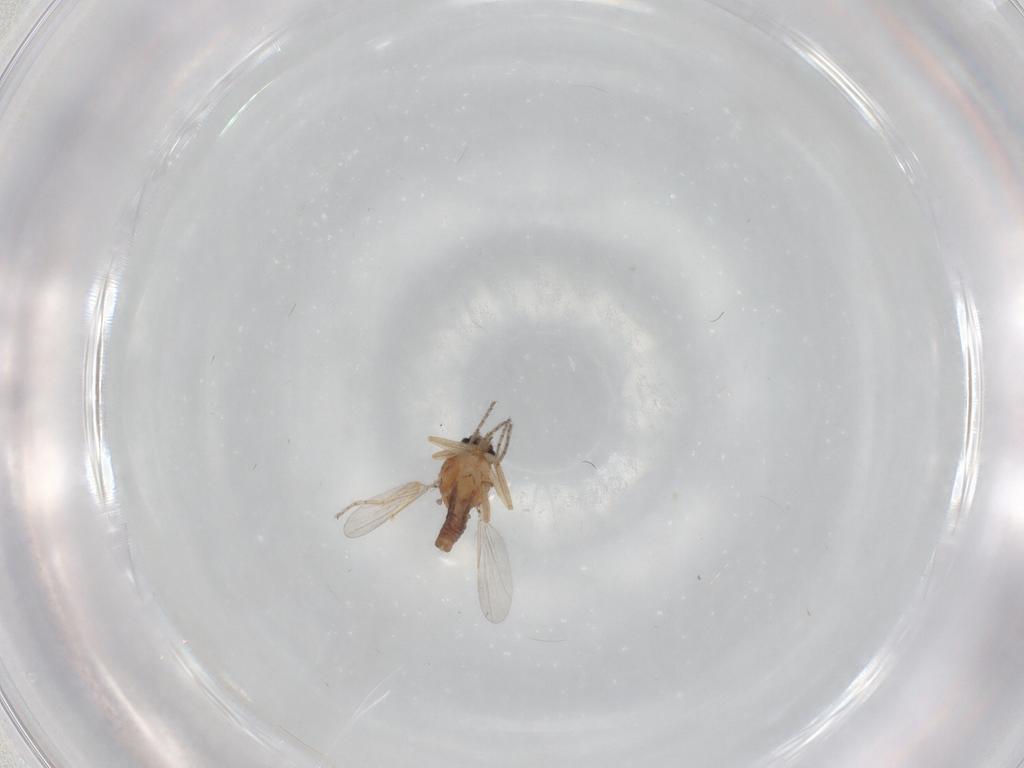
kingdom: Animalia
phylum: Arthropoda
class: Insecta
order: Diptera
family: Ceratopogonidae
